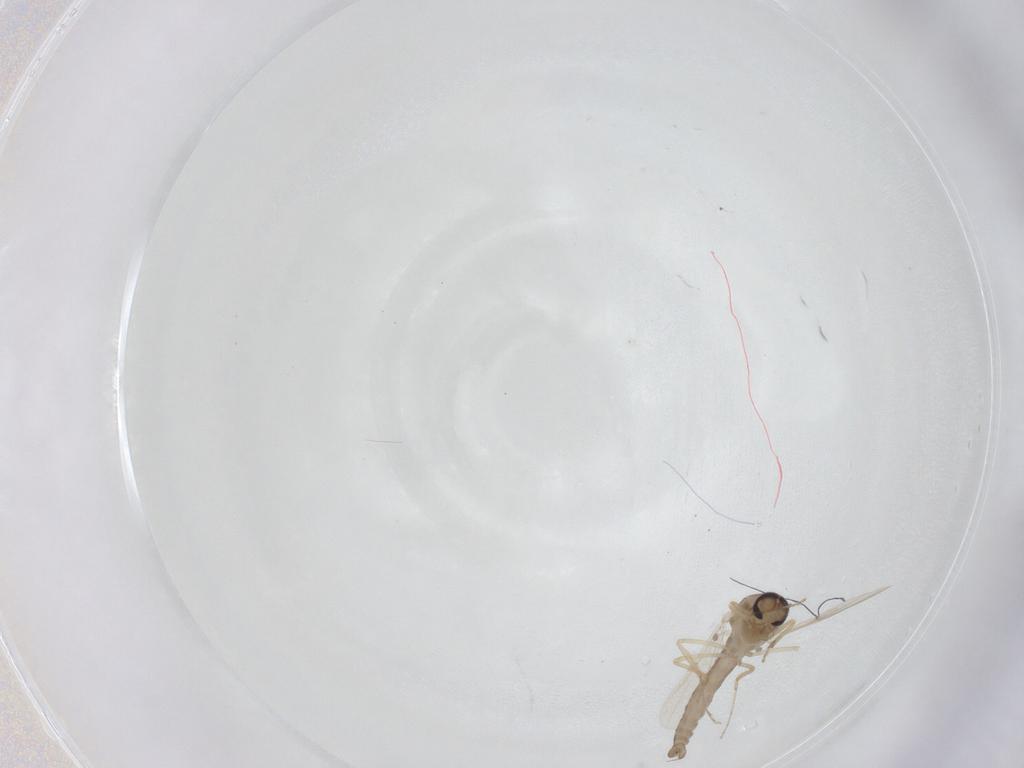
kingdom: Animalia
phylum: Arthropoda
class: Insecta
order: Diptera
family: Ceratopogonidae
